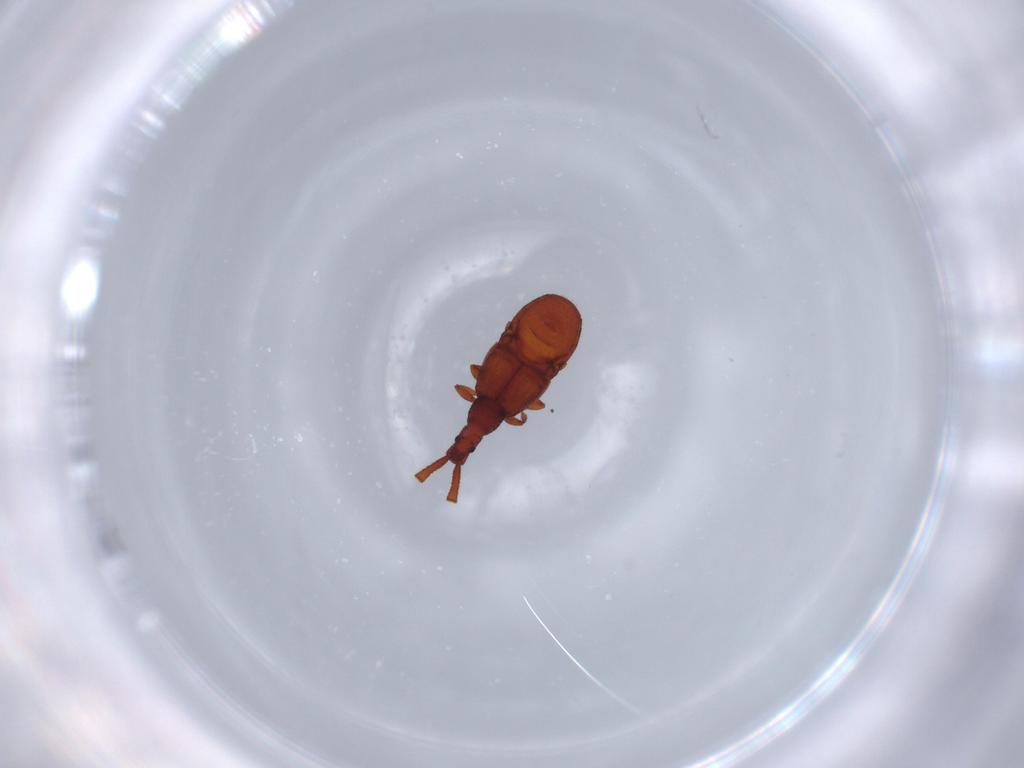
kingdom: Animalia
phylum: Arthropoda
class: Insecta
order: Coleoptera
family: Staphylinidae
